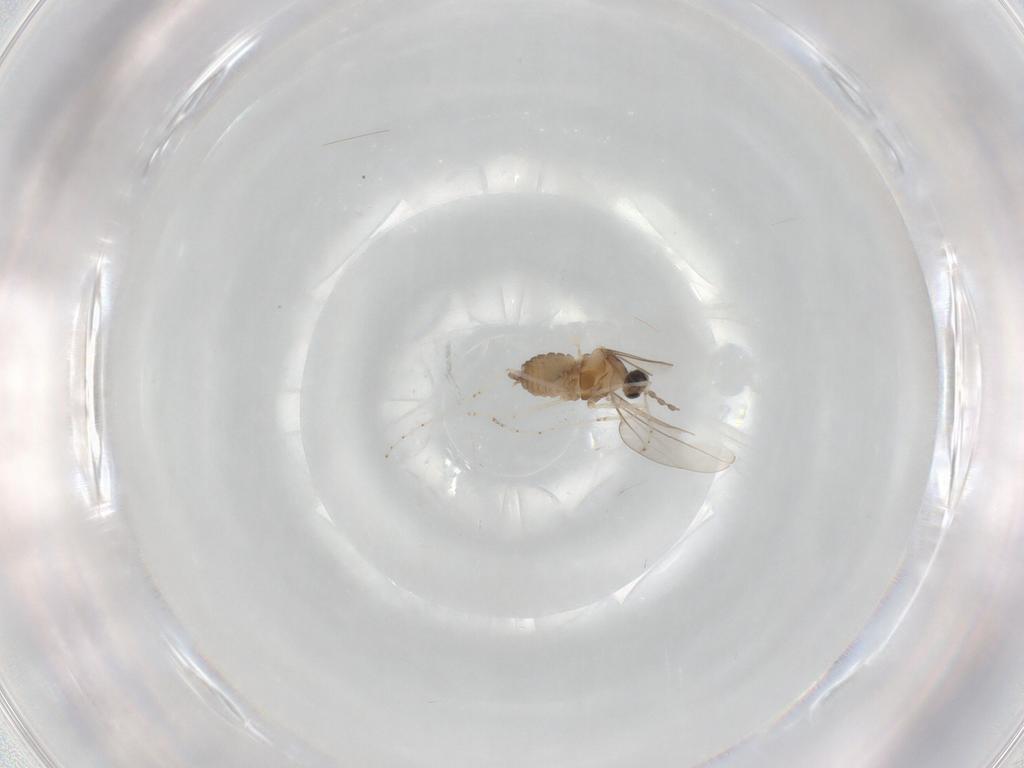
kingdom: Animalia
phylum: Arthropoda
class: Insecta
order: Diptera
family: Cecidomyiidae
